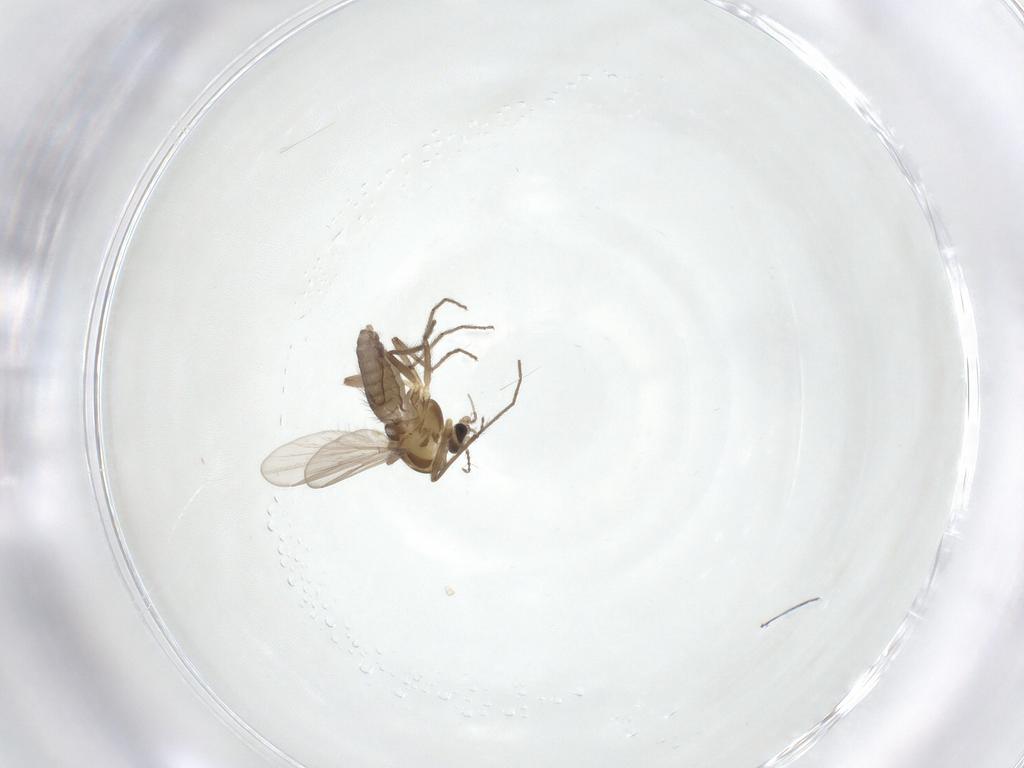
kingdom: Animalia
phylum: Arthropoda
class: Insecta
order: Diptera
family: Chironomidae
